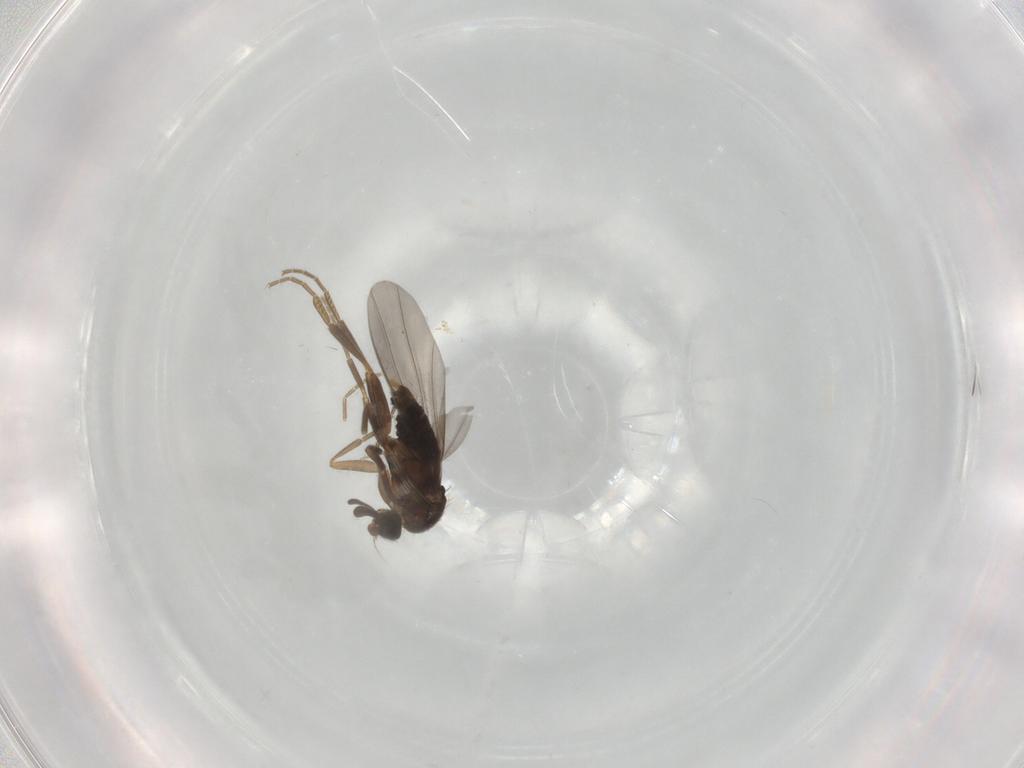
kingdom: Animalia
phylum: Arthropoda
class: Insecta
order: Diptera
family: Phoridae
